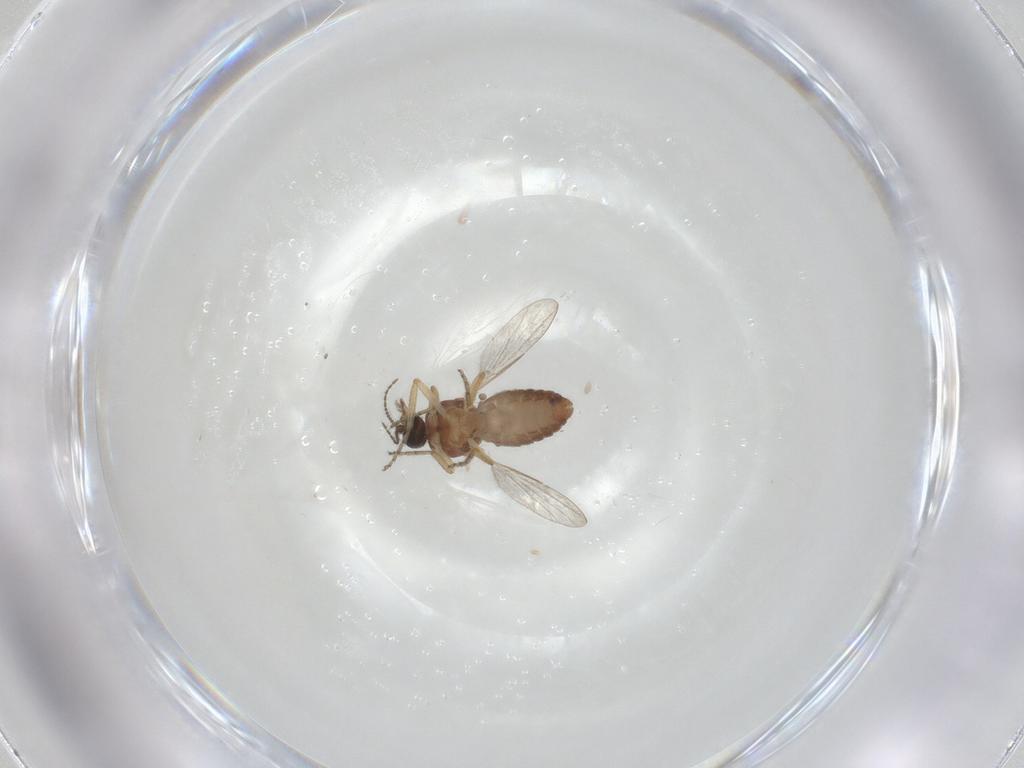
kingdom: Animalia
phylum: Arthropoda
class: Insecta
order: Diptera
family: Ceratopogonidae
